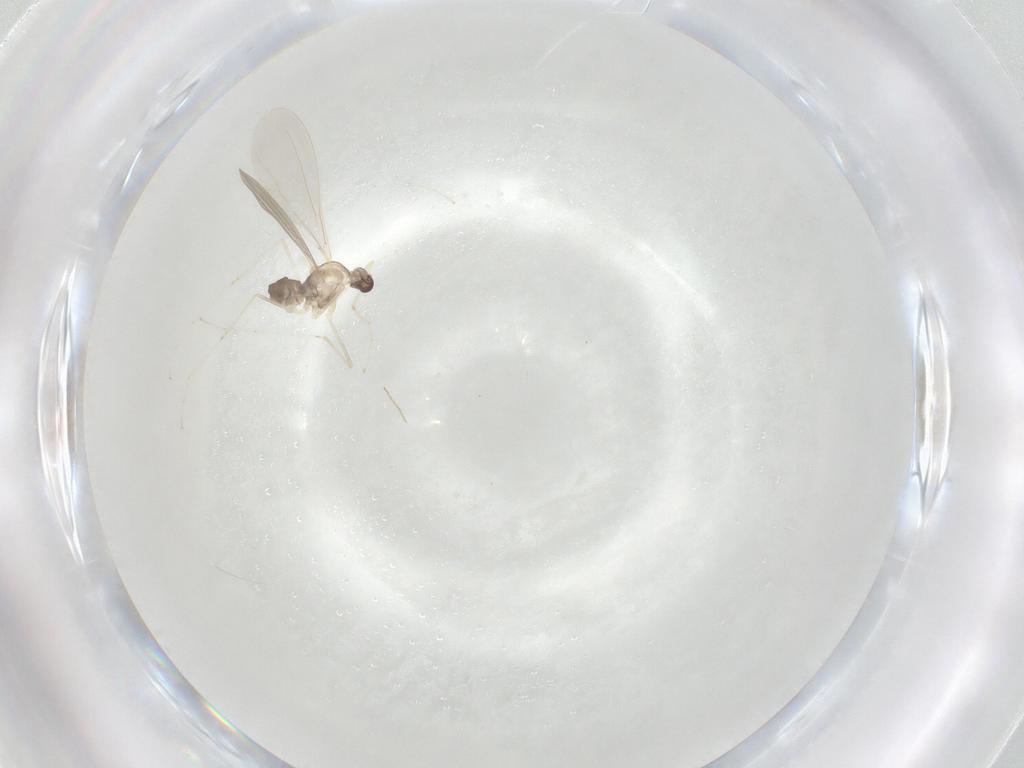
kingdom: Animalia
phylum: Arthropoda
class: Insecta
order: Diptera
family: Cecidomyiidae
